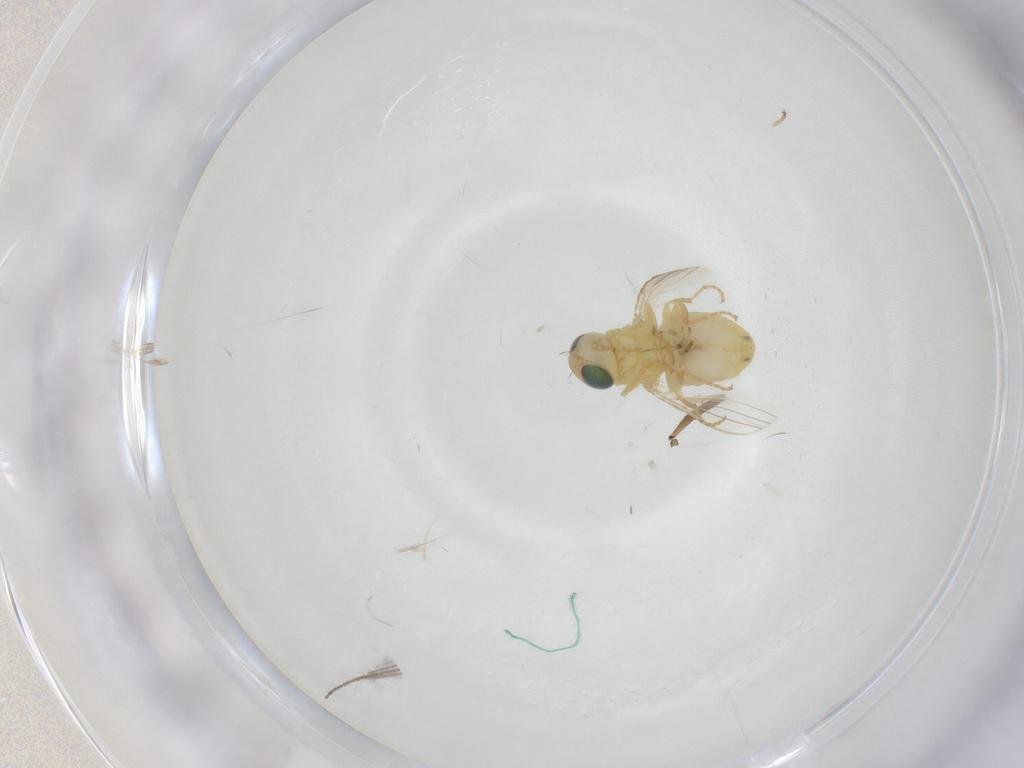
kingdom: Animalia
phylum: Arthropoda
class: Insecta
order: Diptera
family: Chyromyidae
